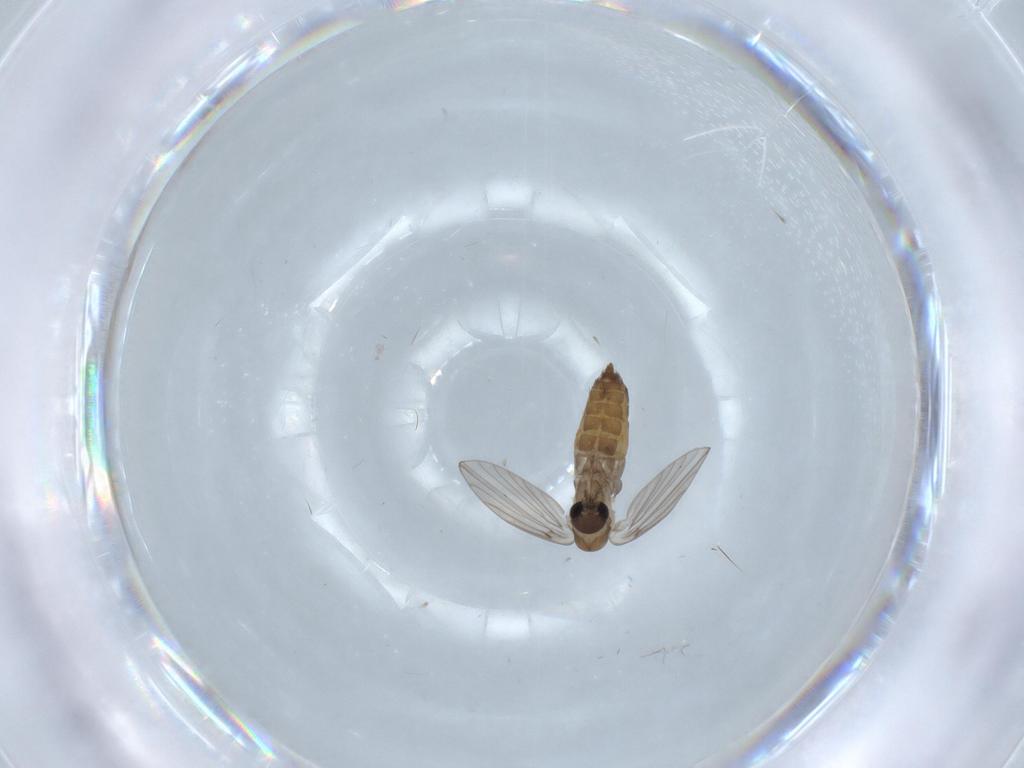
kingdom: Animalia
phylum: Arthropoda
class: Insecta
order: Diptera
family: Psychodidae
